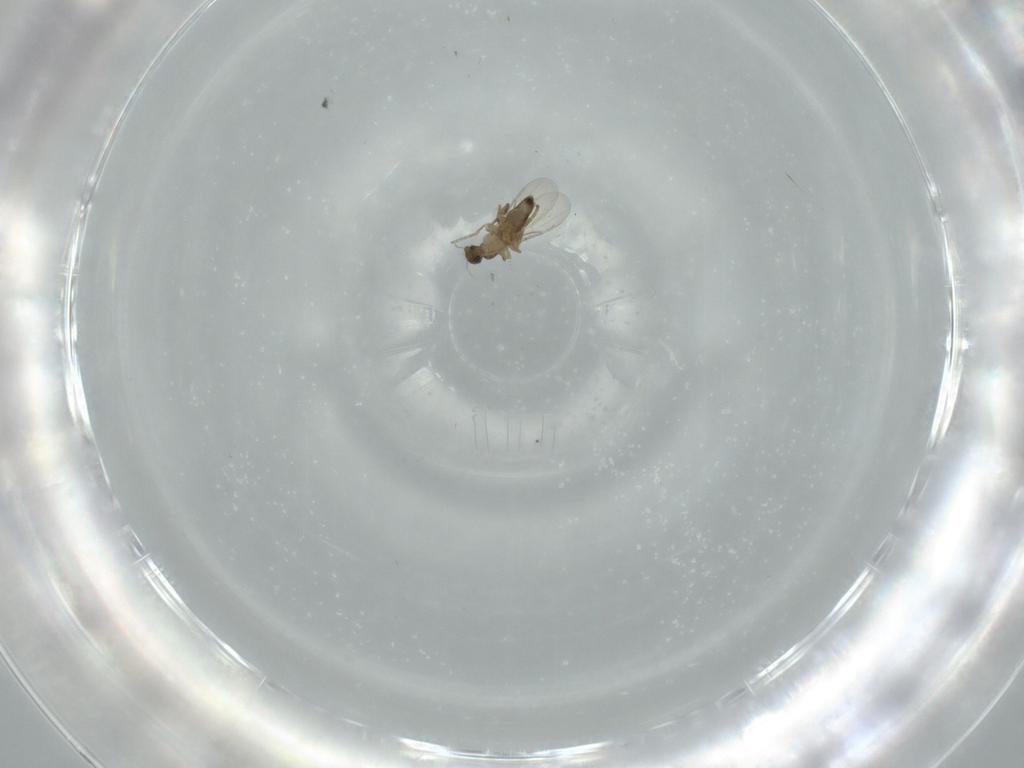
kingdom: Animalia
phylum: Arthropoda
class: Insecta
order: Diptera
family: Phoridae
